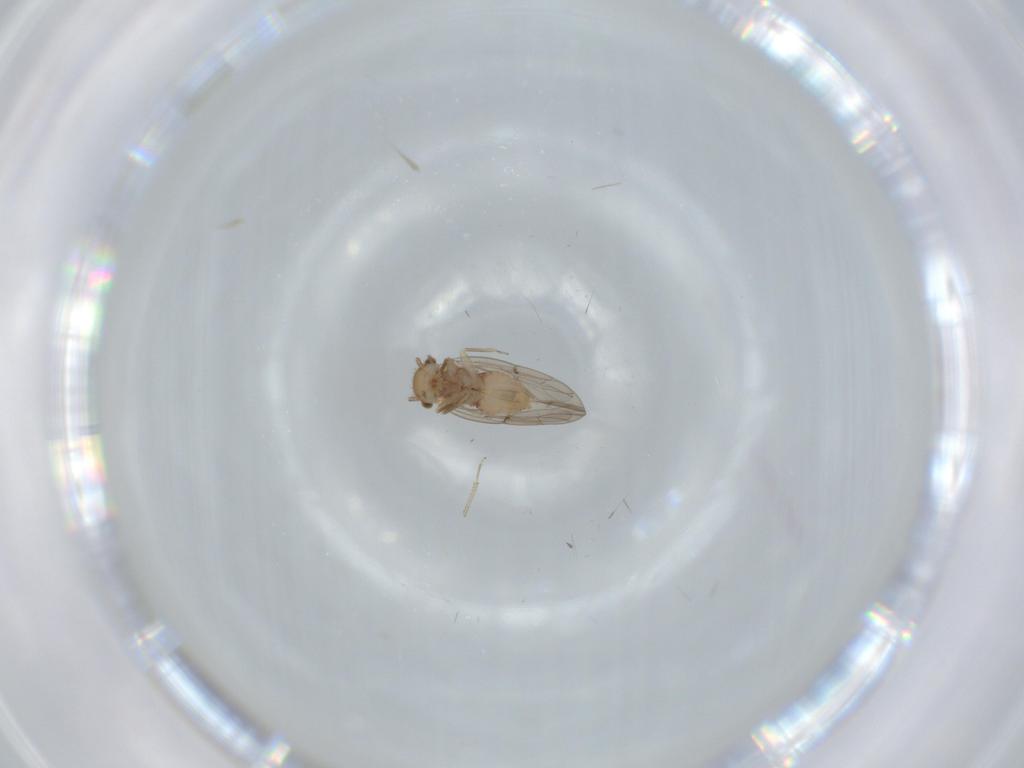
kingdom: Animalia
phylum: Arthropoda
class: Insecta
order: Psocodea
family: Ectopsocidae
